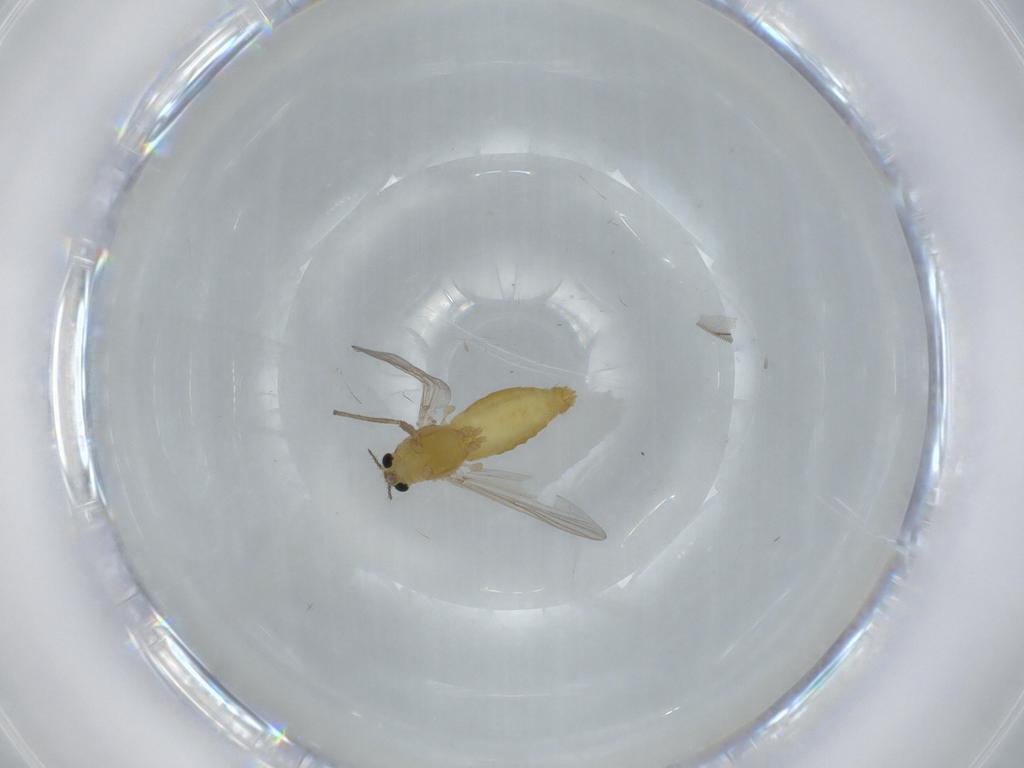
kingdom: Animalia
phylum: Arthropoda
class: Insecta
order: Diptera
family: Chironomidae
